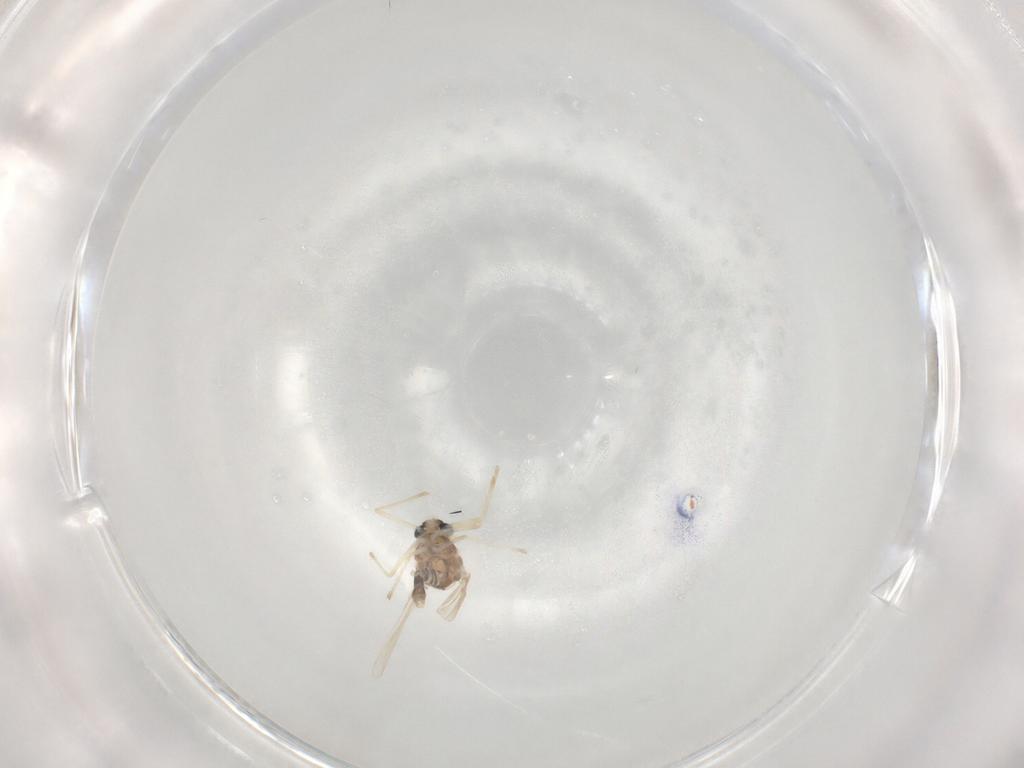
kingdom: Animalia
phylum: Arthropoda
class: Insecta
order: Diptera
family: Chironomidae
